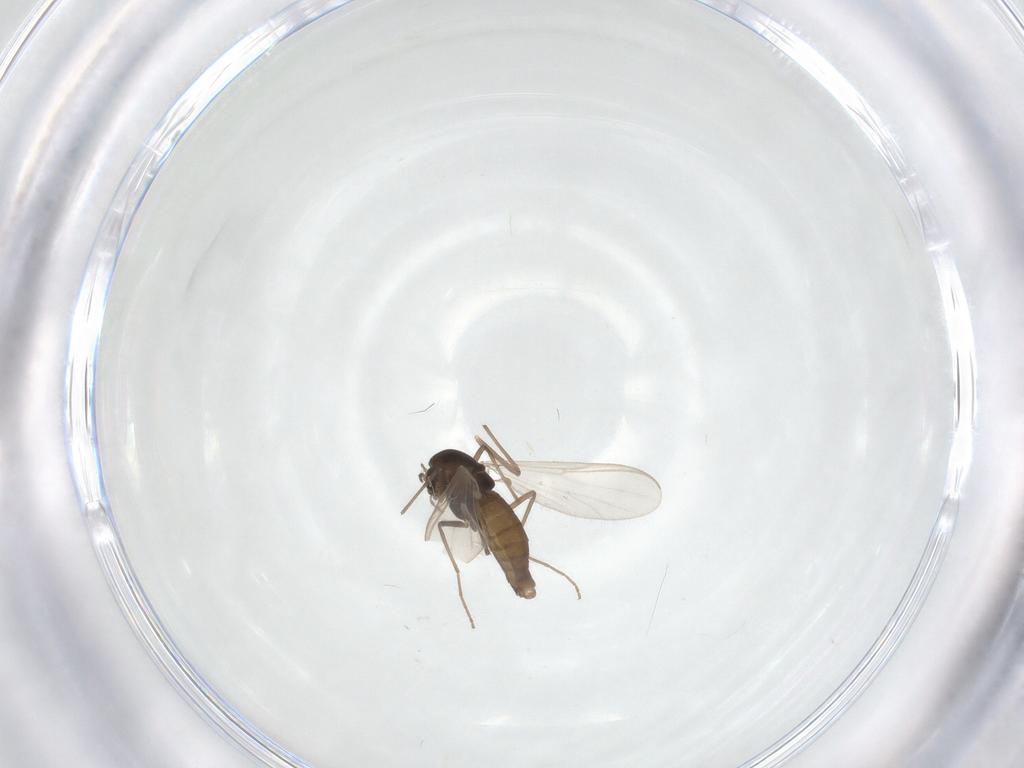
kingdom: Animalia
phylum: Arthropoda
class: Insecta
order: Diptera
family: Chironomidae
